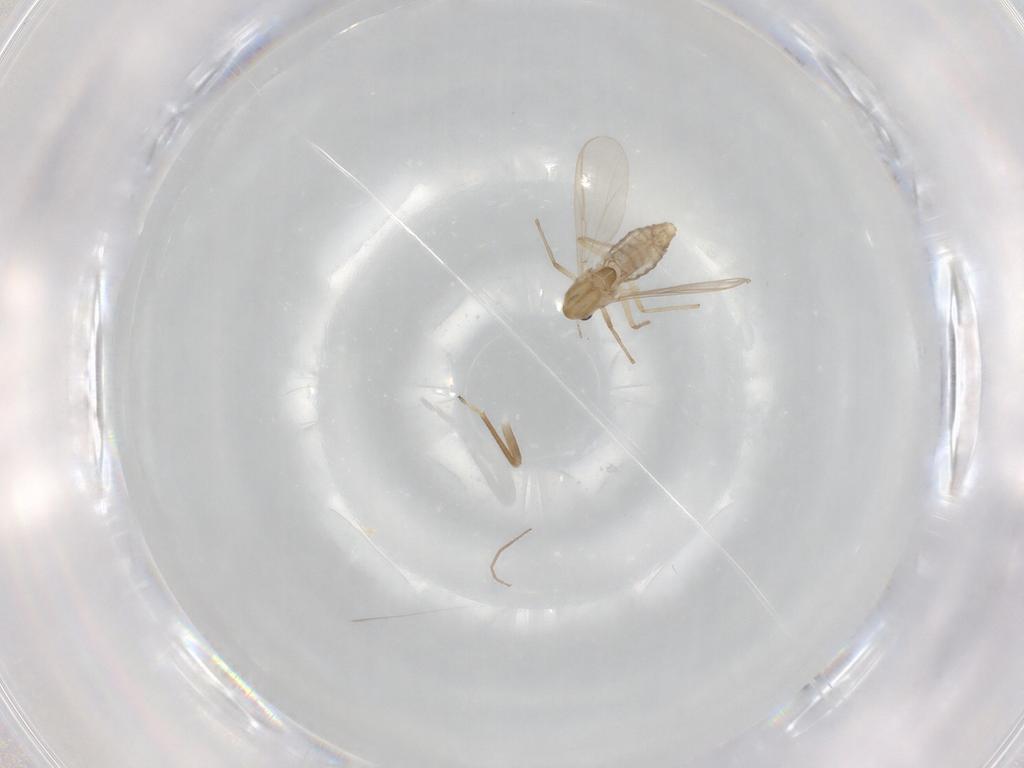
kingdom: Animalia
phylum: Arthropoda
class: Insecta
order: Diptera
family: Chironomidae
